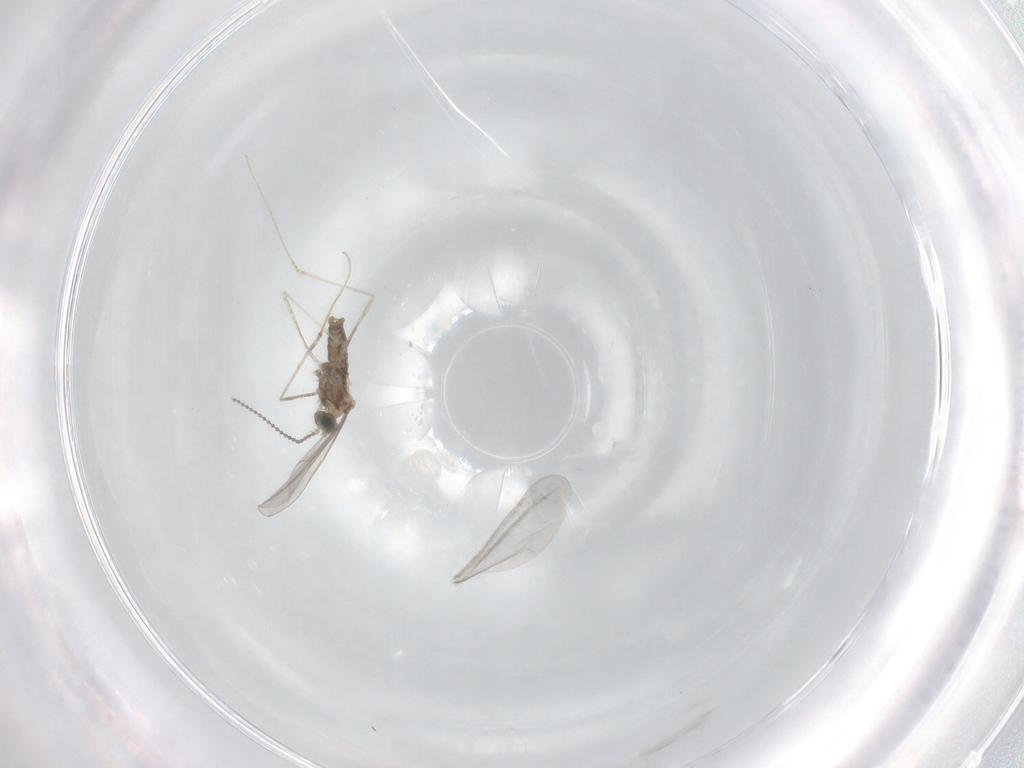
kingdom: Animalia
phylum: Arthropoda
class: Insecta
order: Diptera
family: Cecidomyiidae
